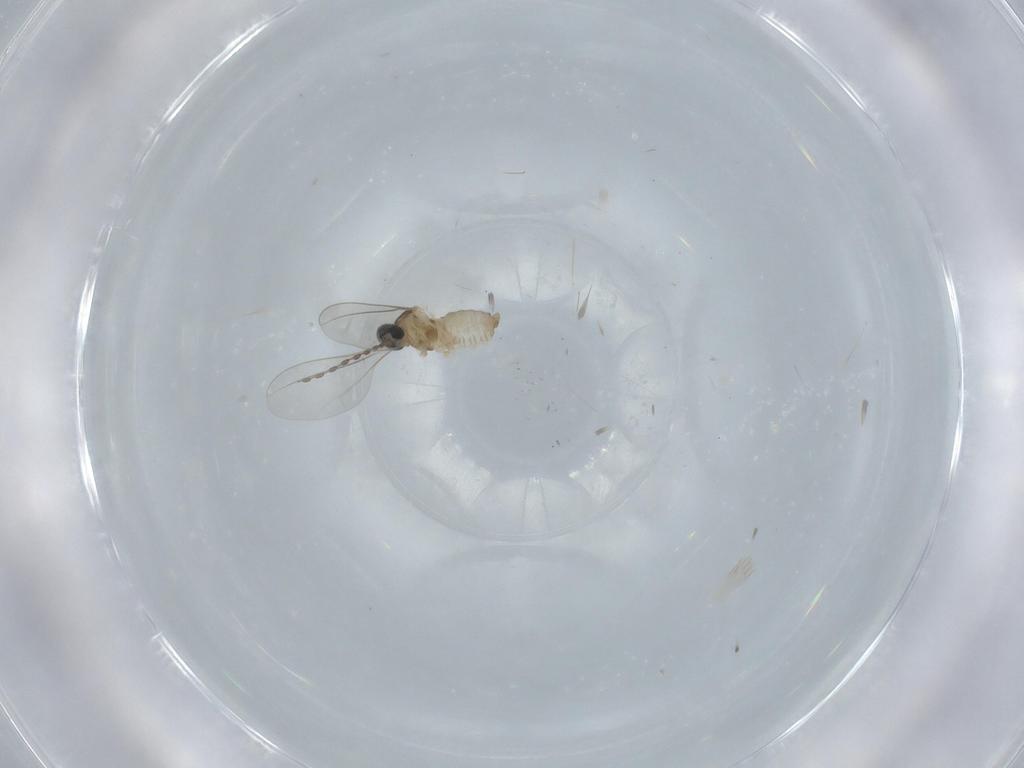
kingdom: Animalia
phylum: Arthropoda
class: Insecta
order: Diptera
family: Cecidomyiidae
